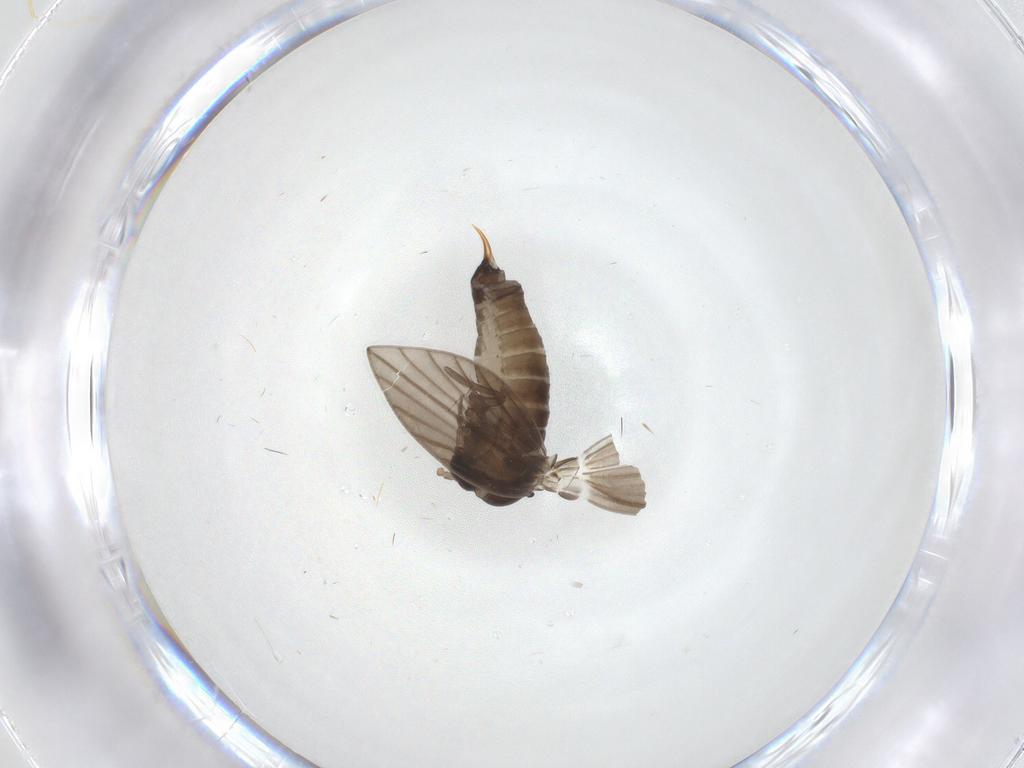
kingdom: Animalia
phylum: Arthropoda
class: Insecta
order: Diptera
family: Psychodidae
